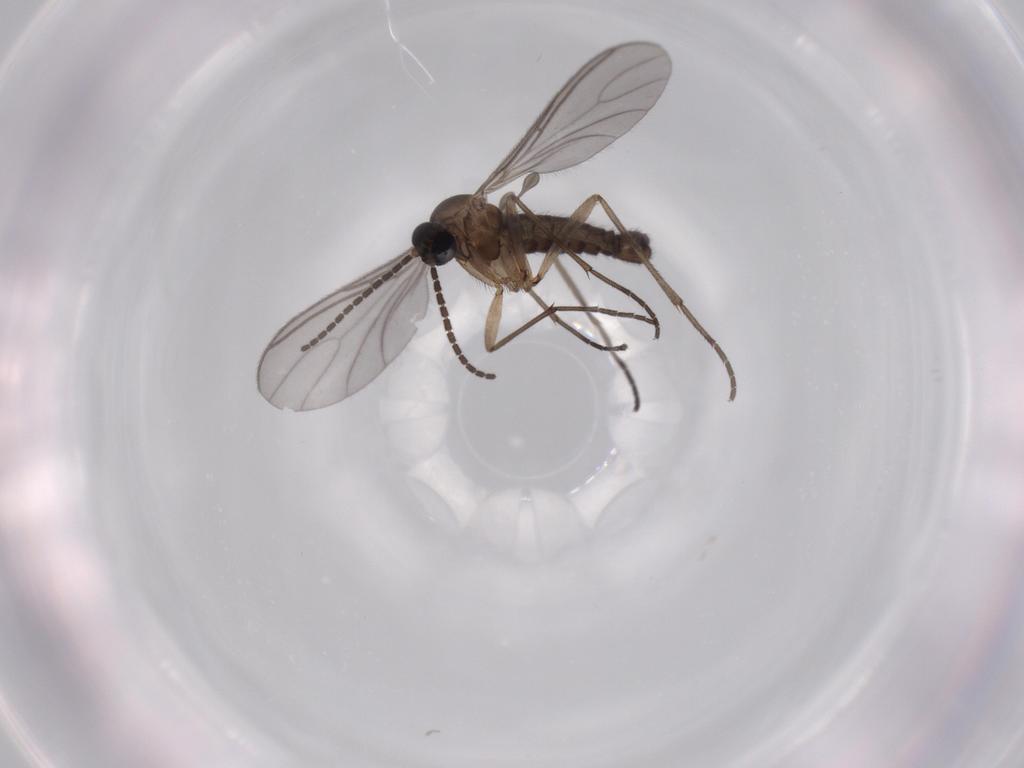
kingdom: Animalia
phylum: Arthropoda
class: Insecta
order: Diptera
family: Sciaridae
